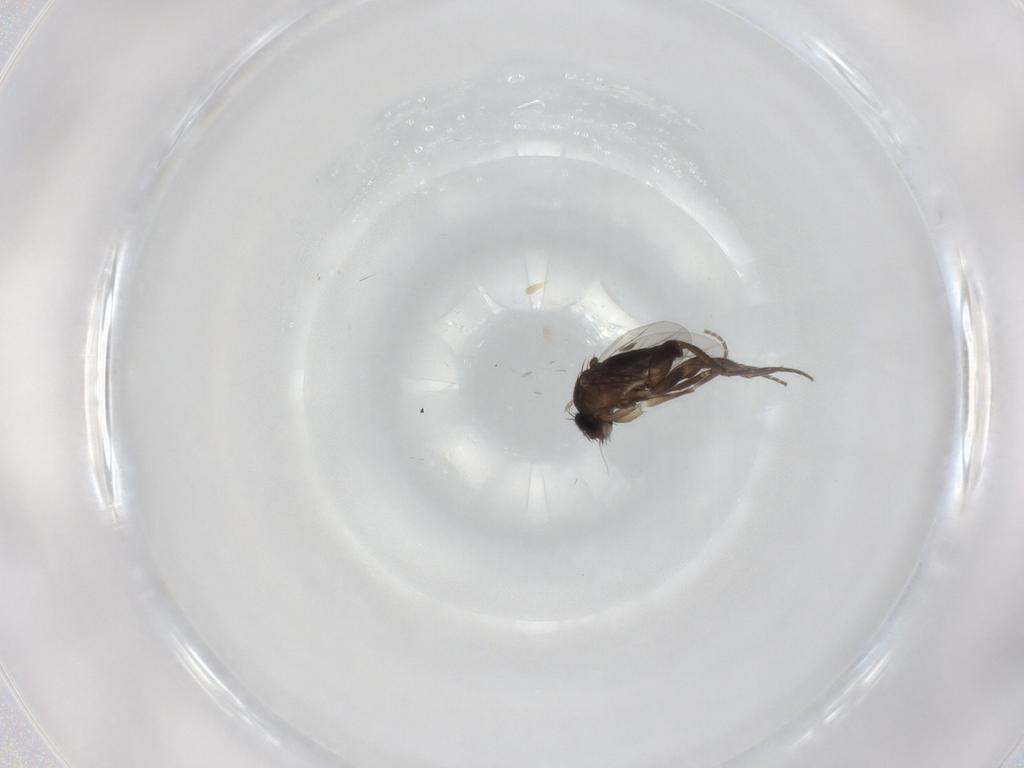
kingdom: Animalia
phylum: Arthropoda
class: Insecta
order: Diptera
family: Phoridae
